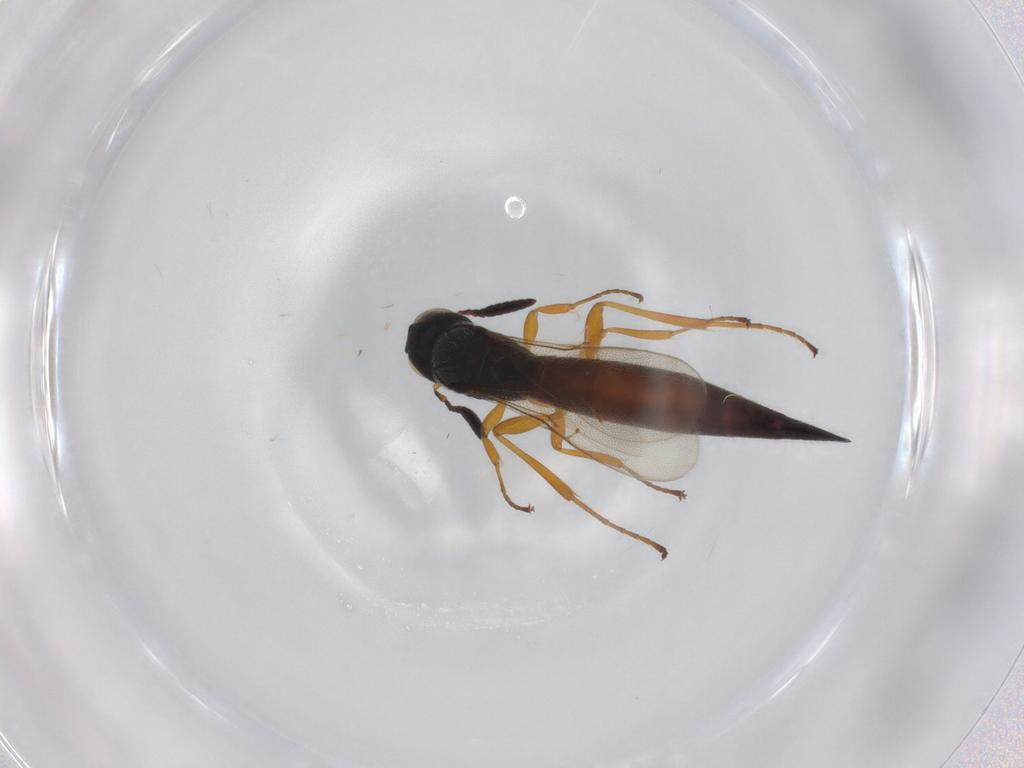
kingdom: Animalia
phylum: Arthropoda
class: Insecta
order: Hymenoptera
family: Scelionidae
